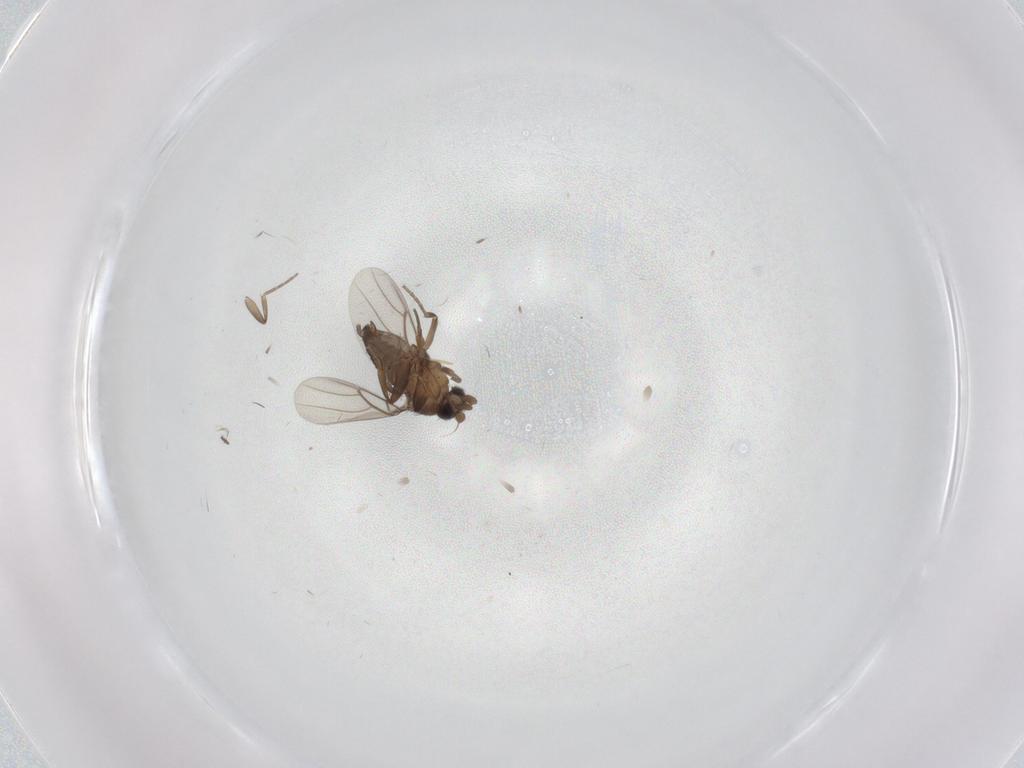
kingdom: Animalia
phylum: Arthropoda
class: Insecta
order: Diptera
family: Phoridae
